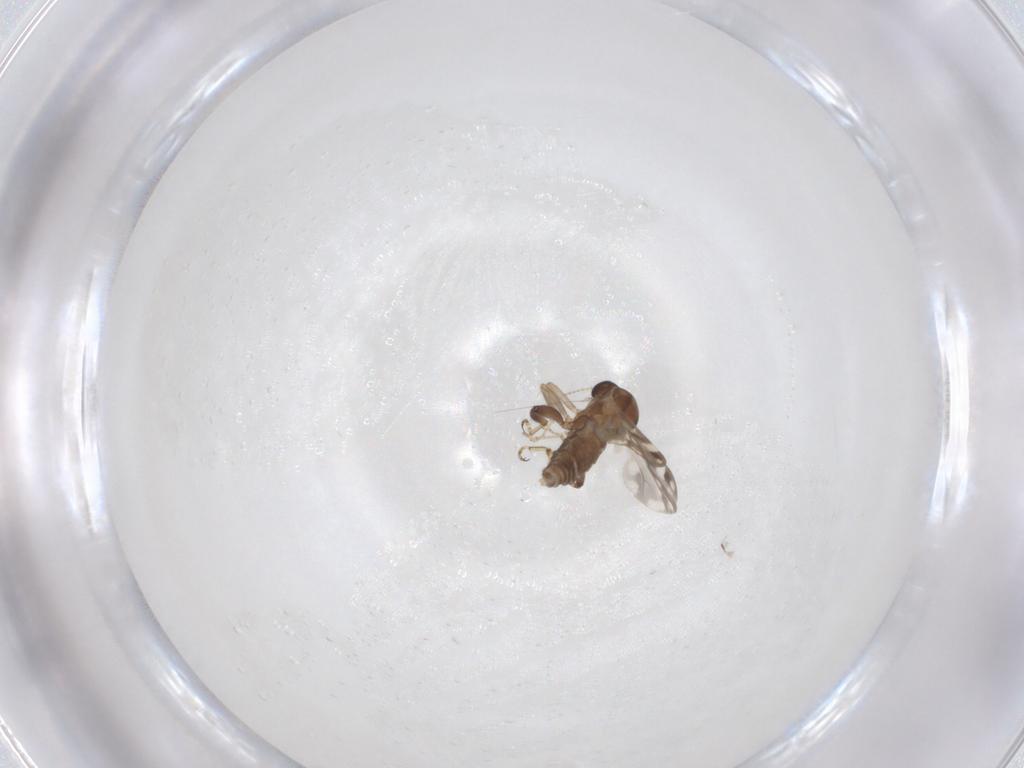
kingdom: Animalia
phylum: Arthropoda
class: Insecta
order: Diptera
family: Ceratopogonidae
